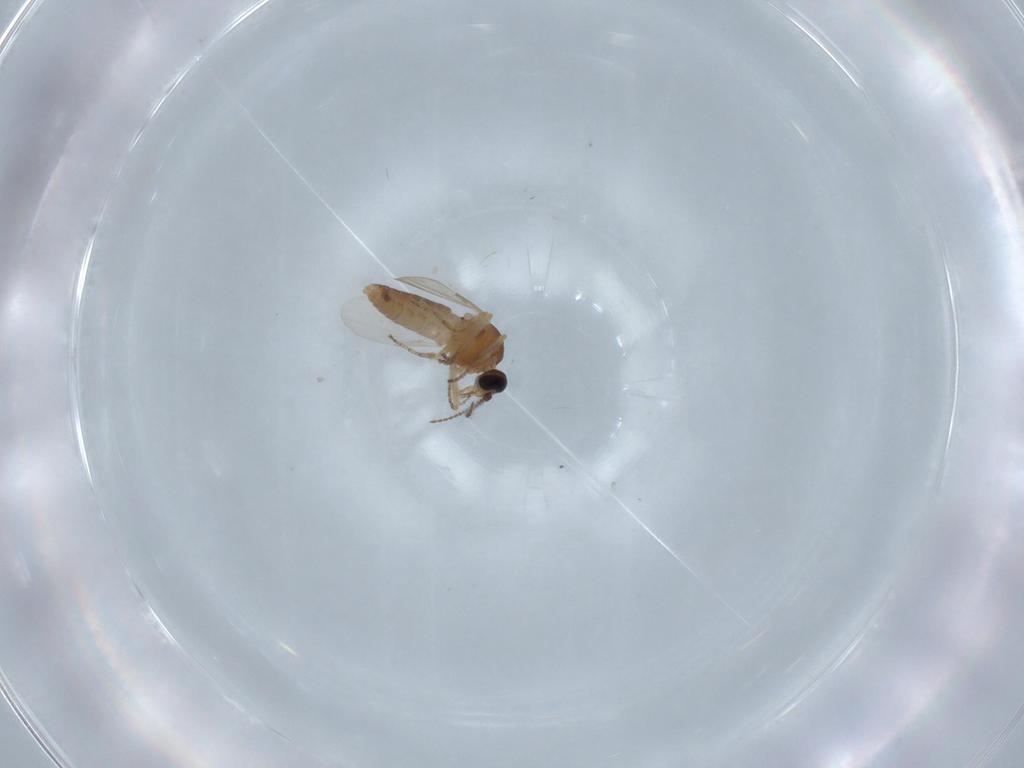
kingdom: Animalia
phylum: Arthropoda
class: Insecta
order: Diptera
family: Ceratopogonidae
